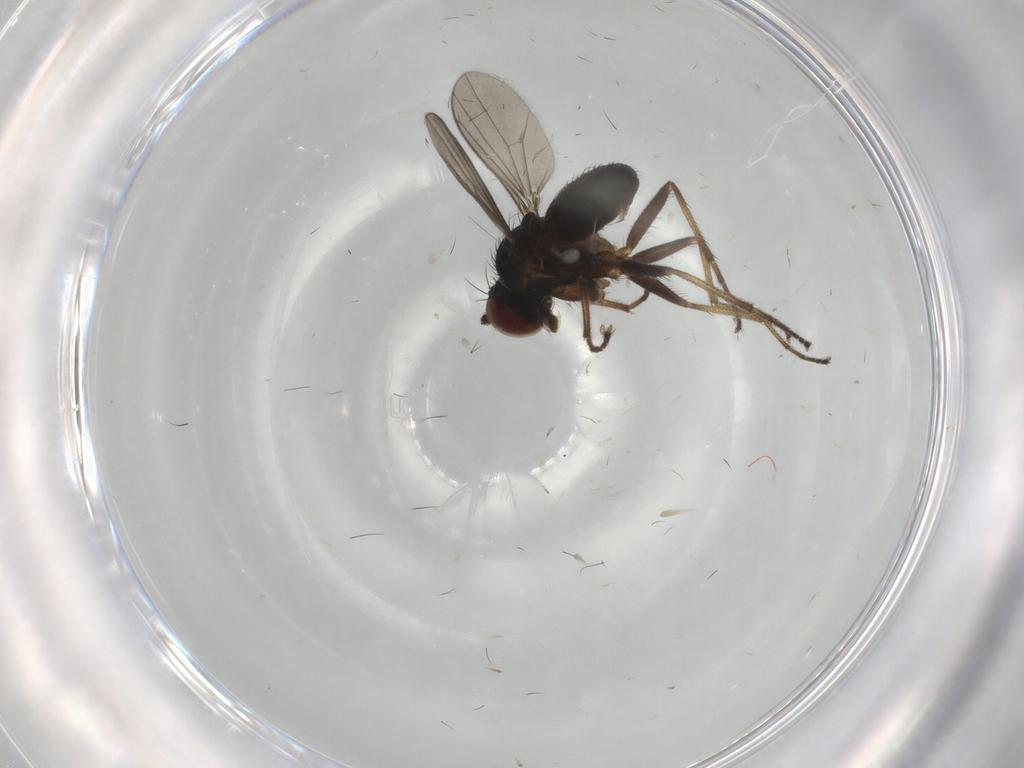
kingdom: Animalia
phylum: Arthropoda
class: Insecta
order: Diptera
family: Dolichopodidae
